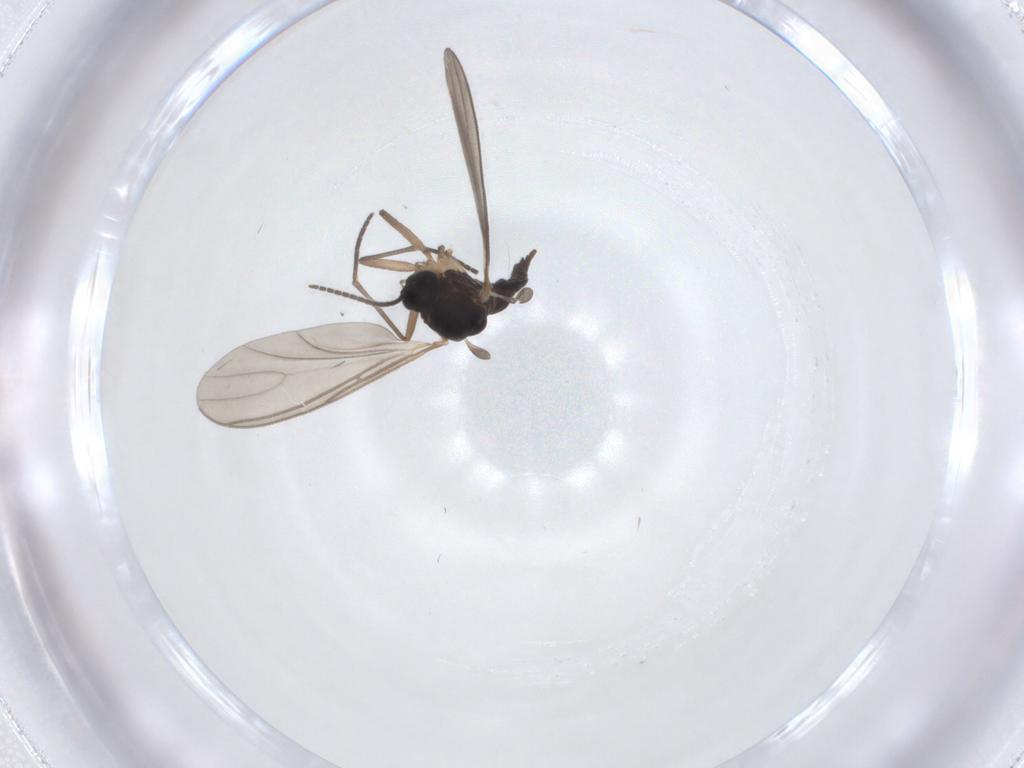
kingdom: Animalia
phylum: Arthropoda
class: Insecta
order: Diptera
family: Sciaridae
